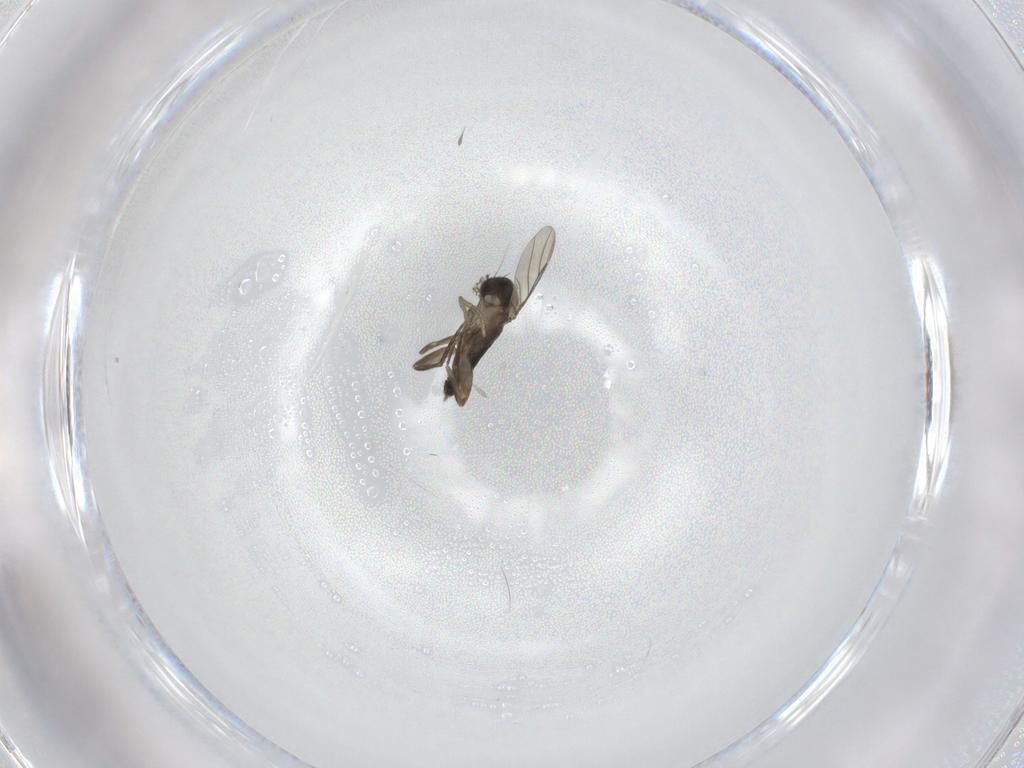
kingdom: Animalia
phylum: Arthropoda
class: Insecta
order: Diptera
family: Phoridae
